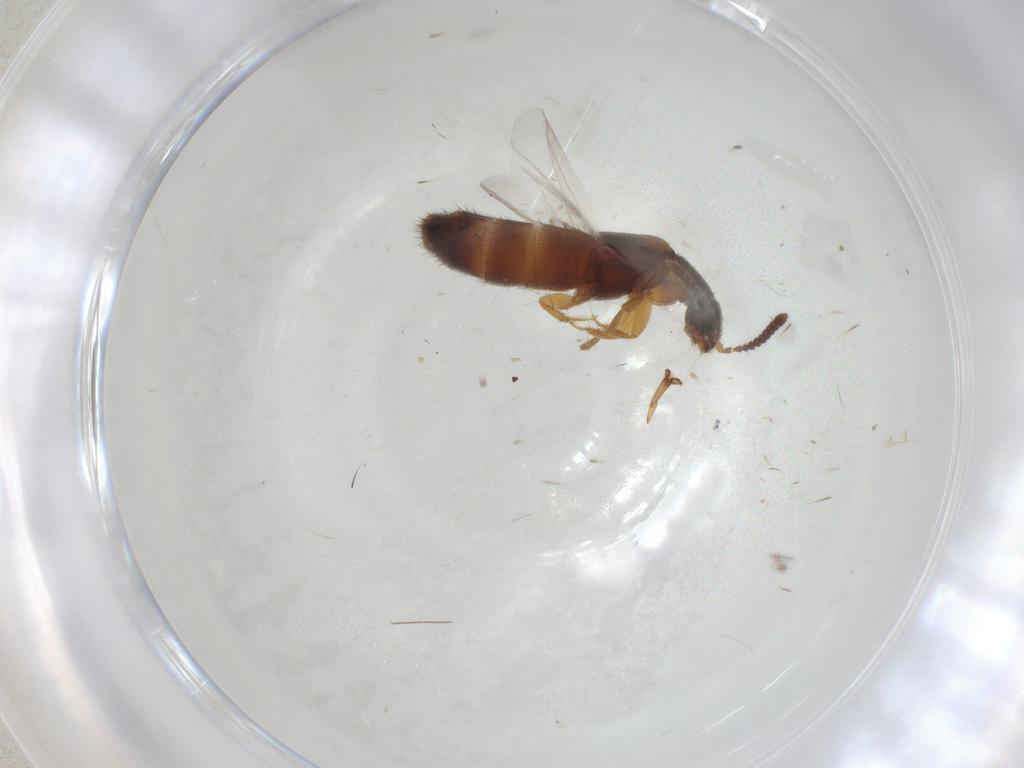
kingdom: Animalia
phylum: Arthropoda
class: Insecta
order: Coleoptera
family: Staphylinidae
